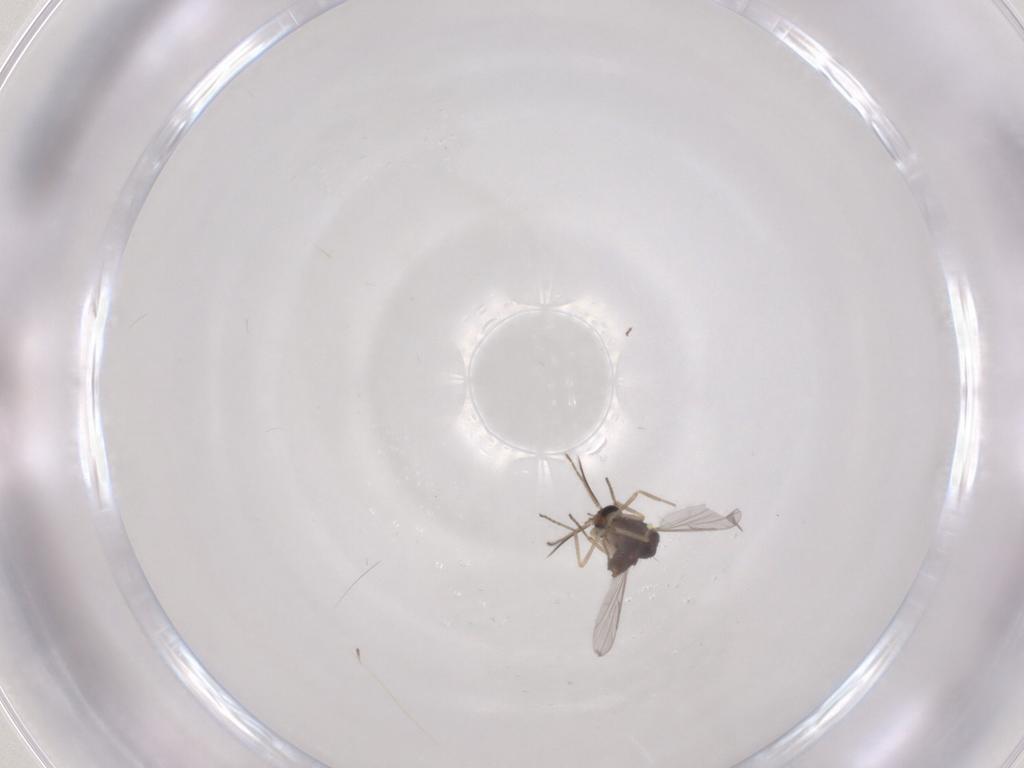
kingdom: Animalia
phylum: Arthropoda
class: Insecta
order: Diptera
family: Ceratopogonidae
